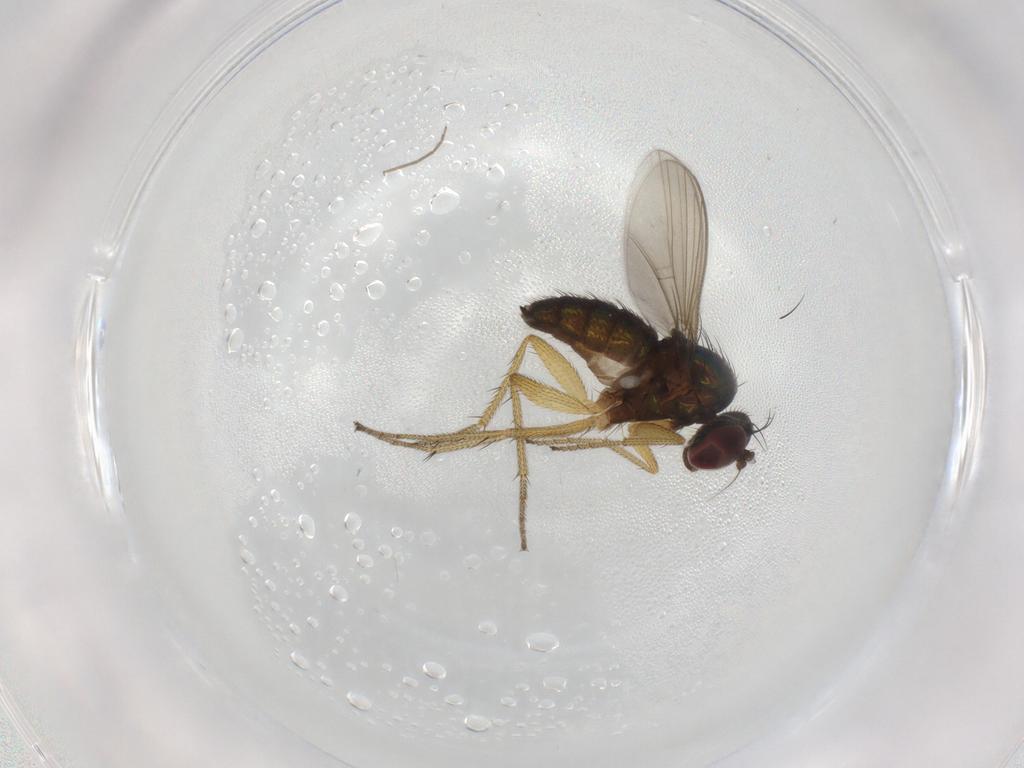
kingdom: Animalia
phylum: Arthropoda
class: Insecta
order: Diptera
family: Chironomidae
